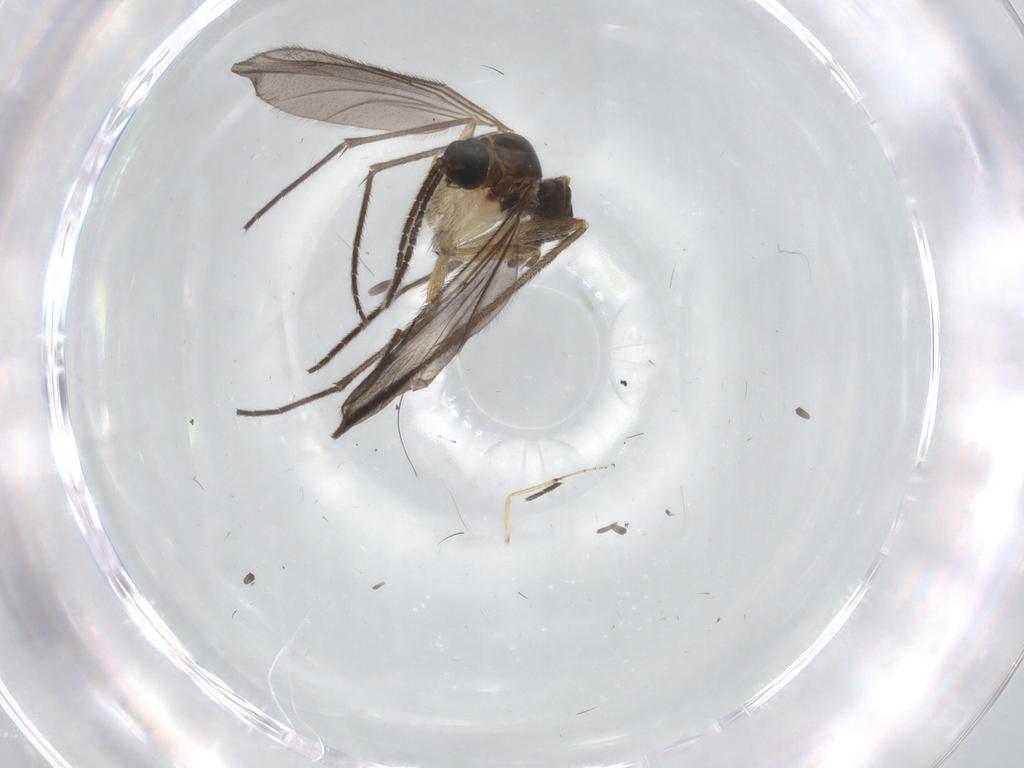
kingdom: Animalia
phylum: Arthropoda
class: Insecta
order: Diptera
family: Sciaridae
